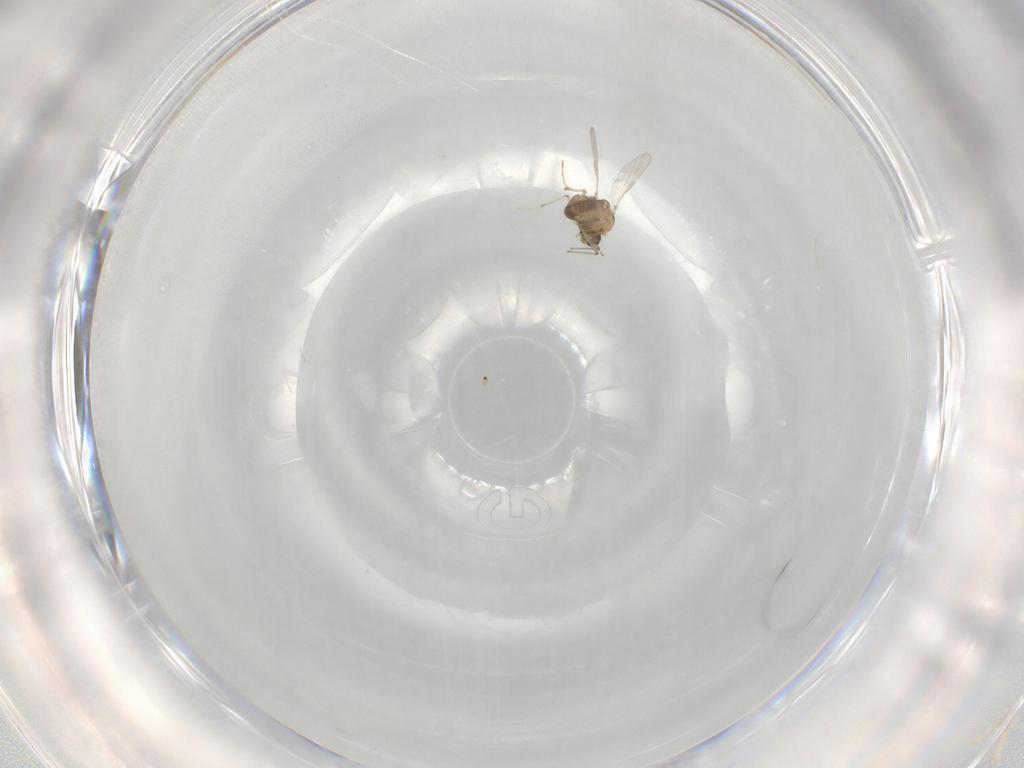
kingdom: Animalia
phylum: Arthropoda
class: Insecta
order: Diptera
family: Chironomidae
